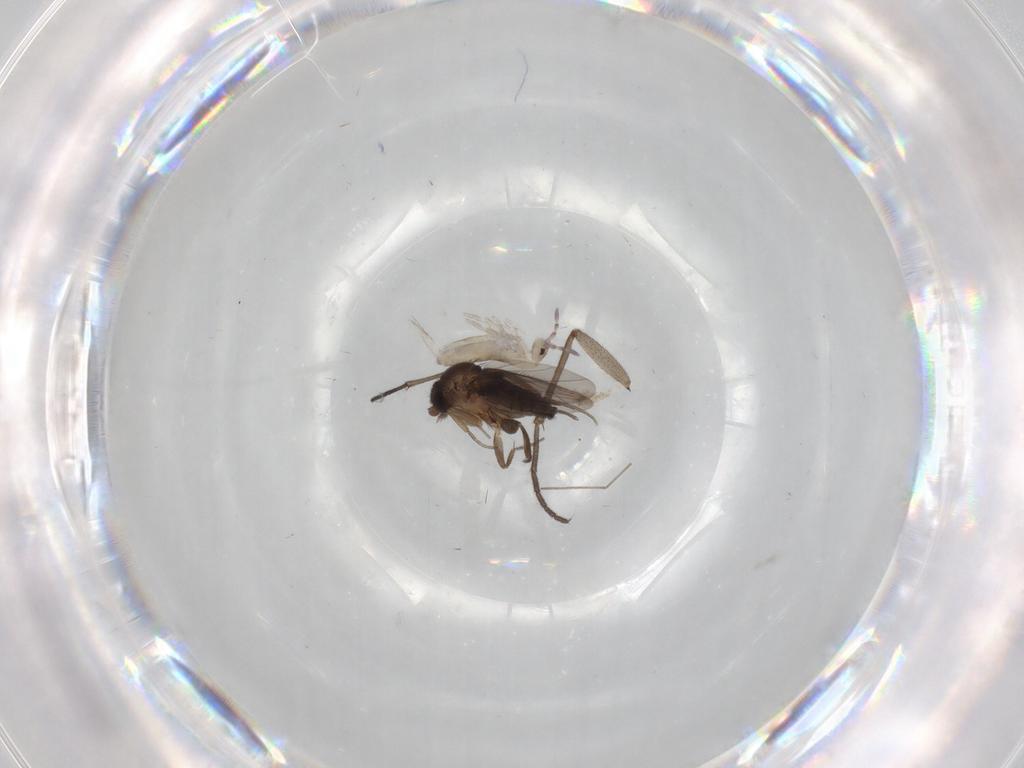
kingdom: Animalia
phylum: Arthropoda
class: Collembola
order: Entomobryomorpha
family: Entomobryidae
